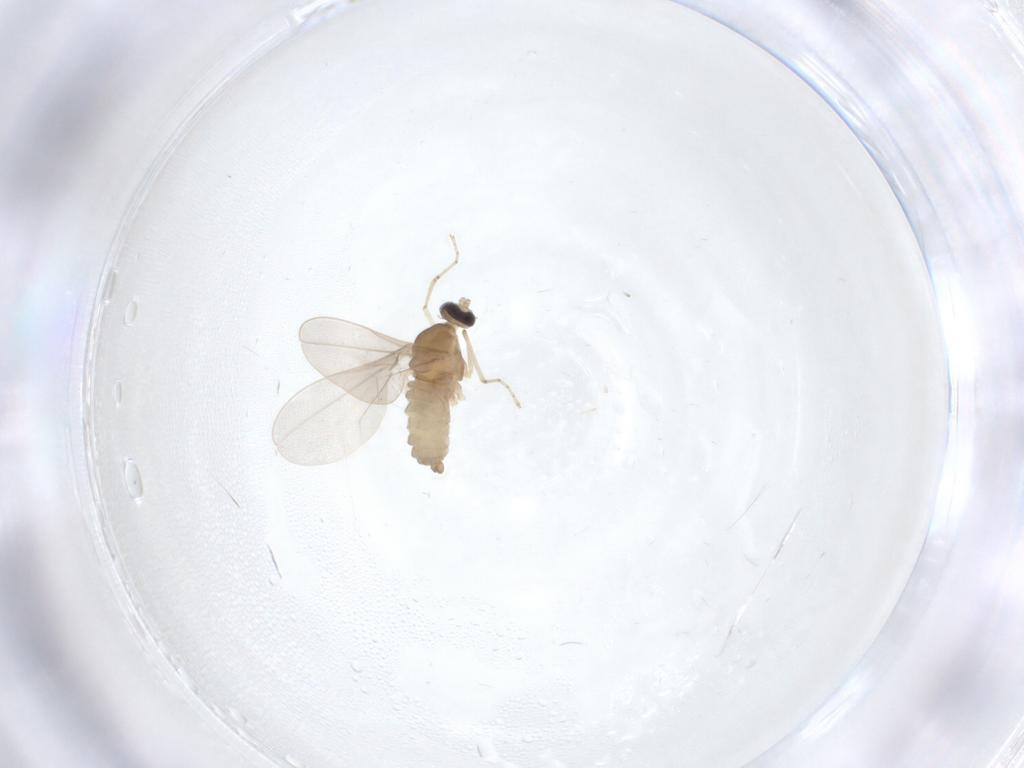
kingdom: Animalia
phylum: Arthropoda
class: Insecta
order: Diptera
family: Cecidomyiidae
